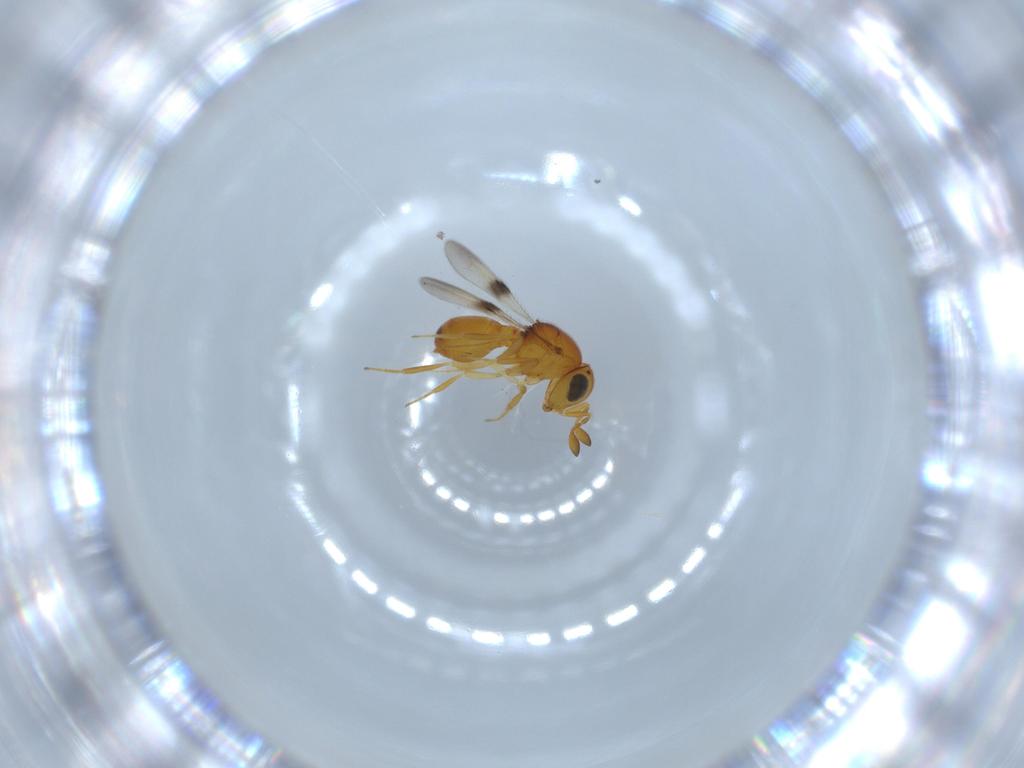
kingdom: Animalia
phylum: Arthropoda
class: Insecta
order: Hymenoptera
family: Scelionidae
